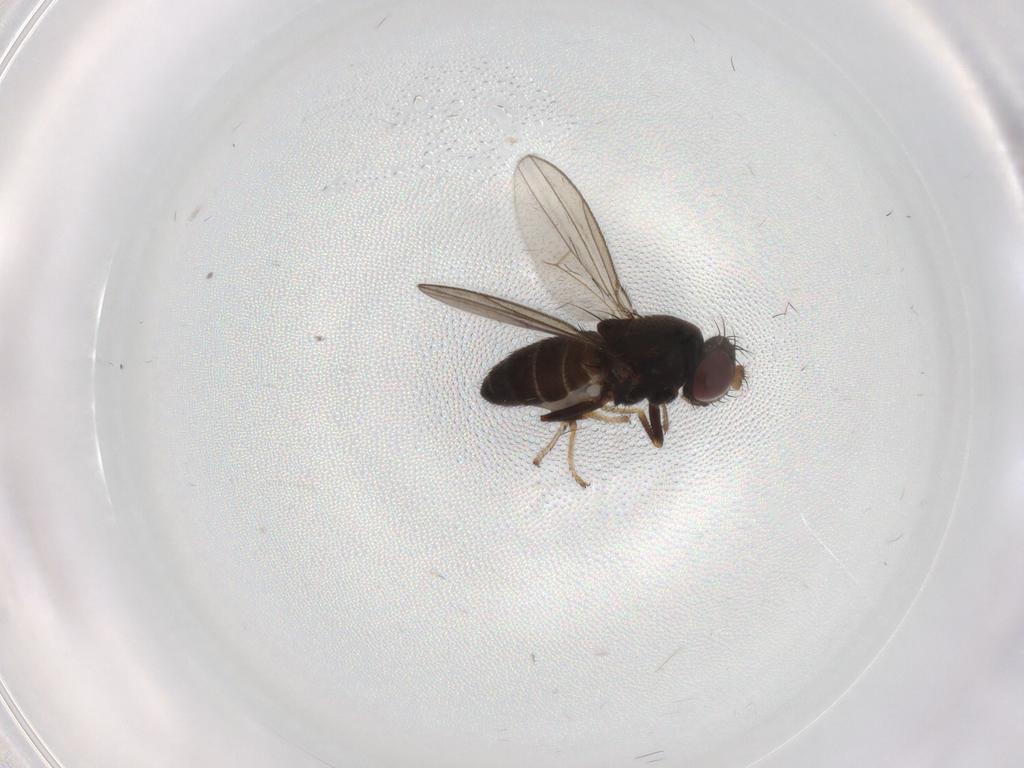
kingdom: Animalia
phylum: Arthropoda
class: Insecta
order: Diptera
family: Ephydridae
